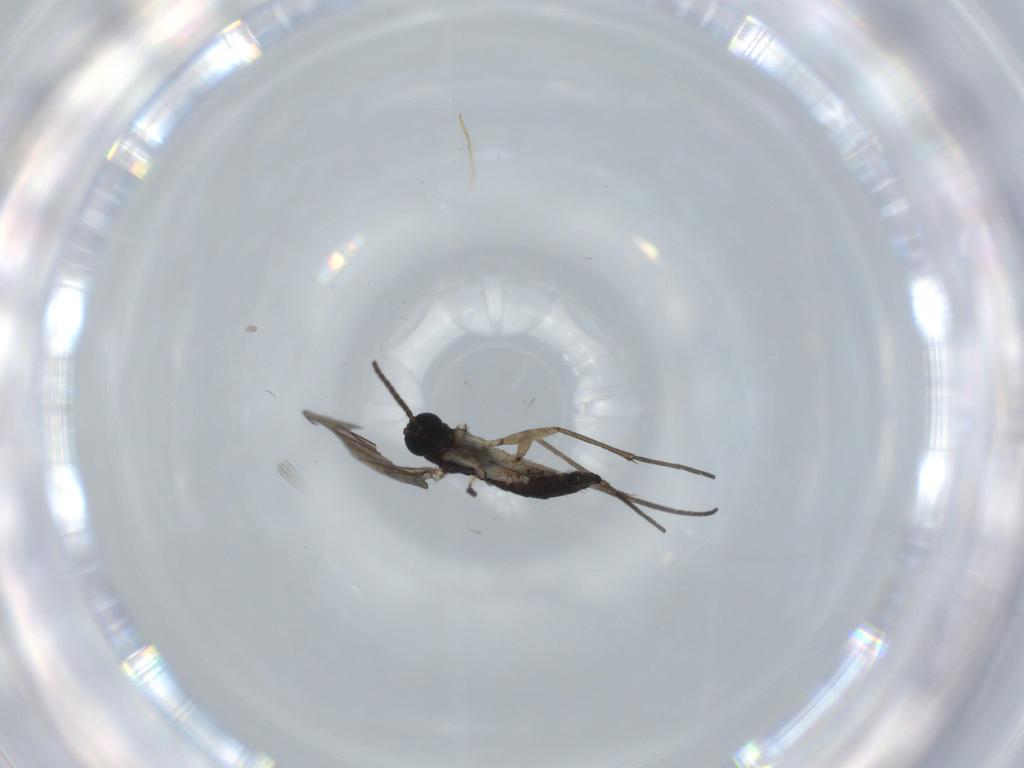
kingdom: Animalia
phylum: Arthropoda
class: Insecta
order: Diptera
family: Sciaridae
